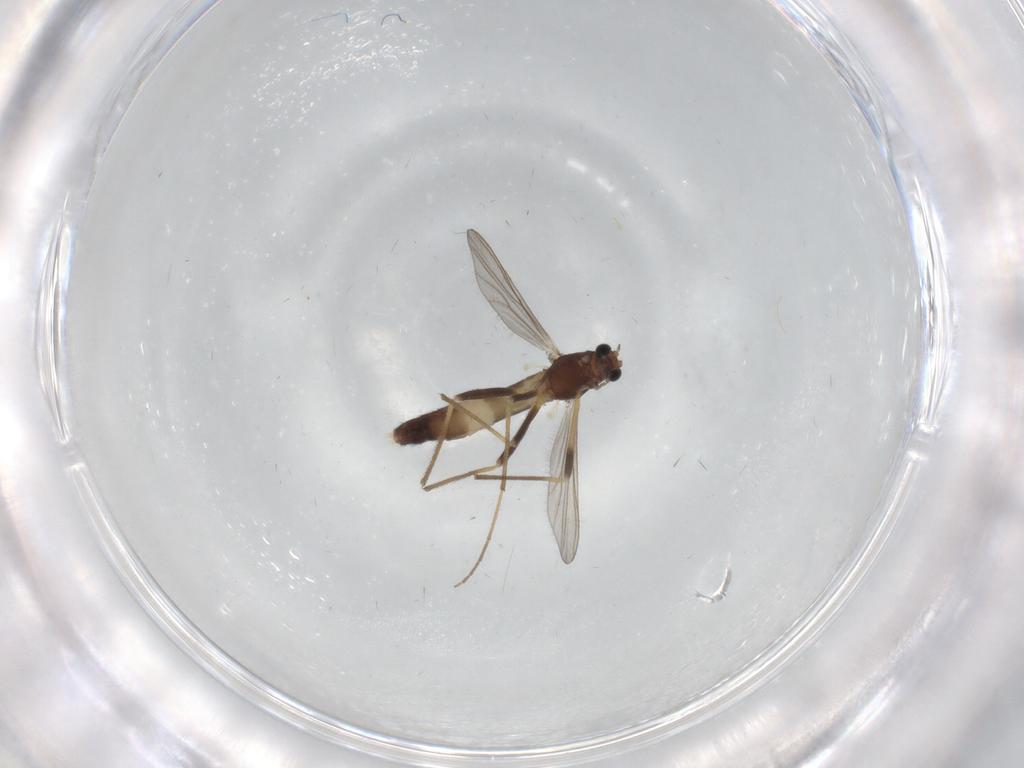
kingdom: Animalia
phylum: Arthropoda
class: Insecta
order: Diptera
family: Chironomidae
